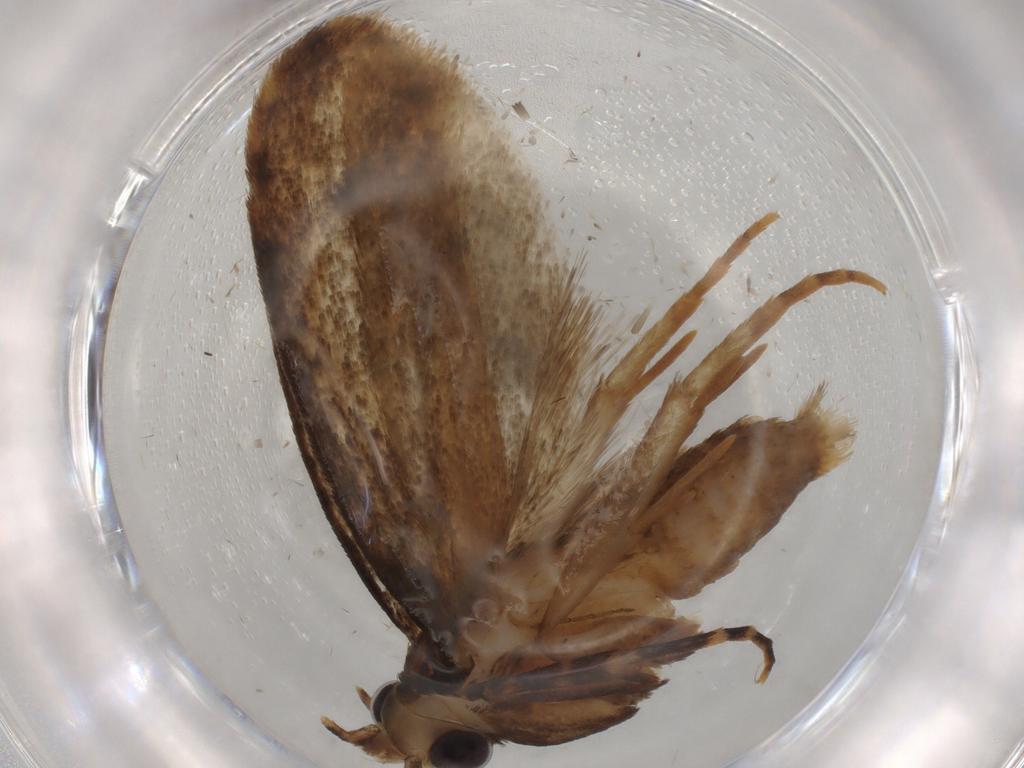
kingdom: Animalia
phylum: Arthropoda
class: Insecta
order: Lepidoptera
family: Tineidae
